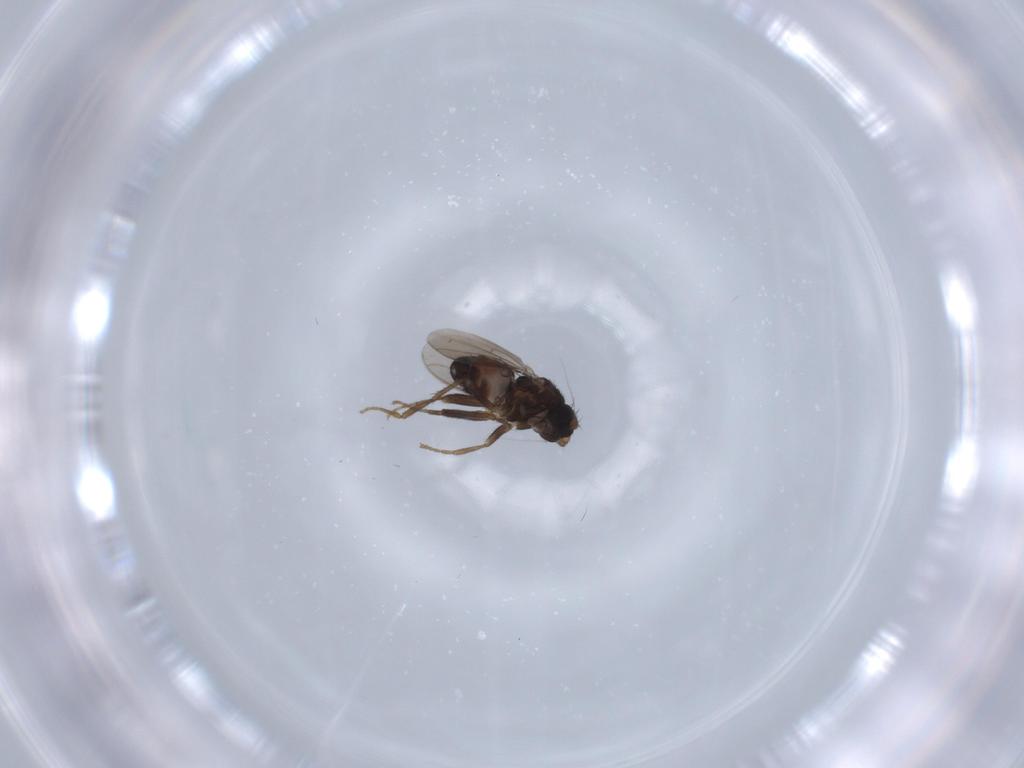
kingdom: Animalia
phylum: Arthropoda
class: Insecta
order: Diptera
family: Sphaeroceridae
